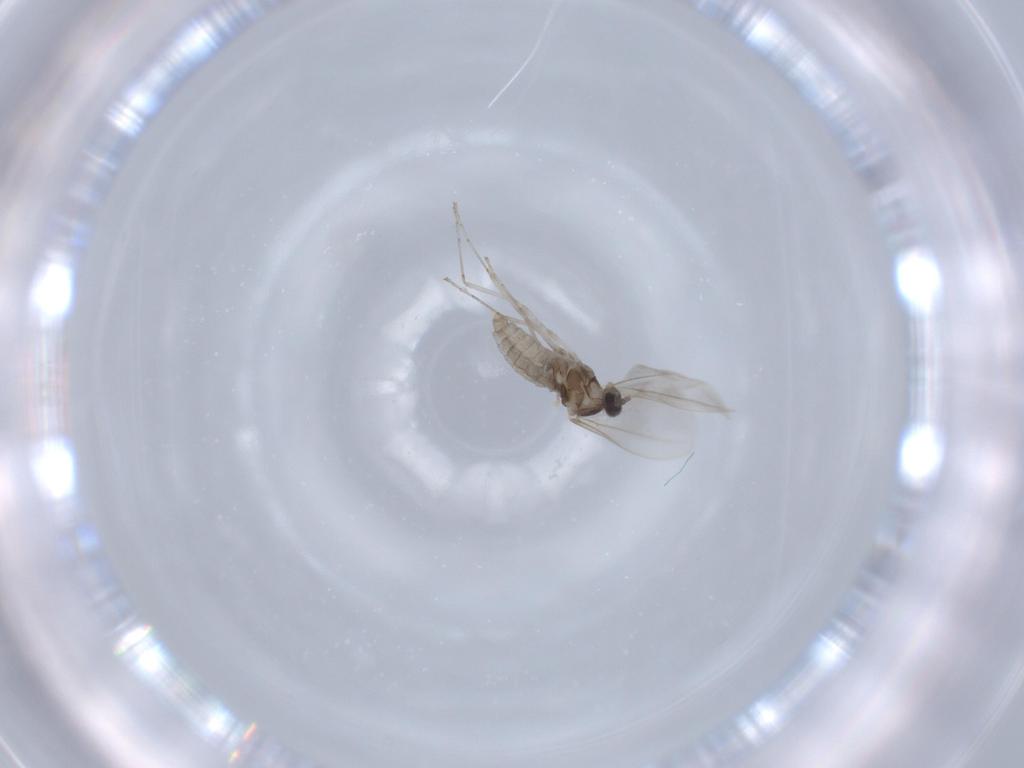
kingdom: Animalia
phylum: Arthropoda
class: Insecta
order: Diptera
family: Cecidomyiidae
